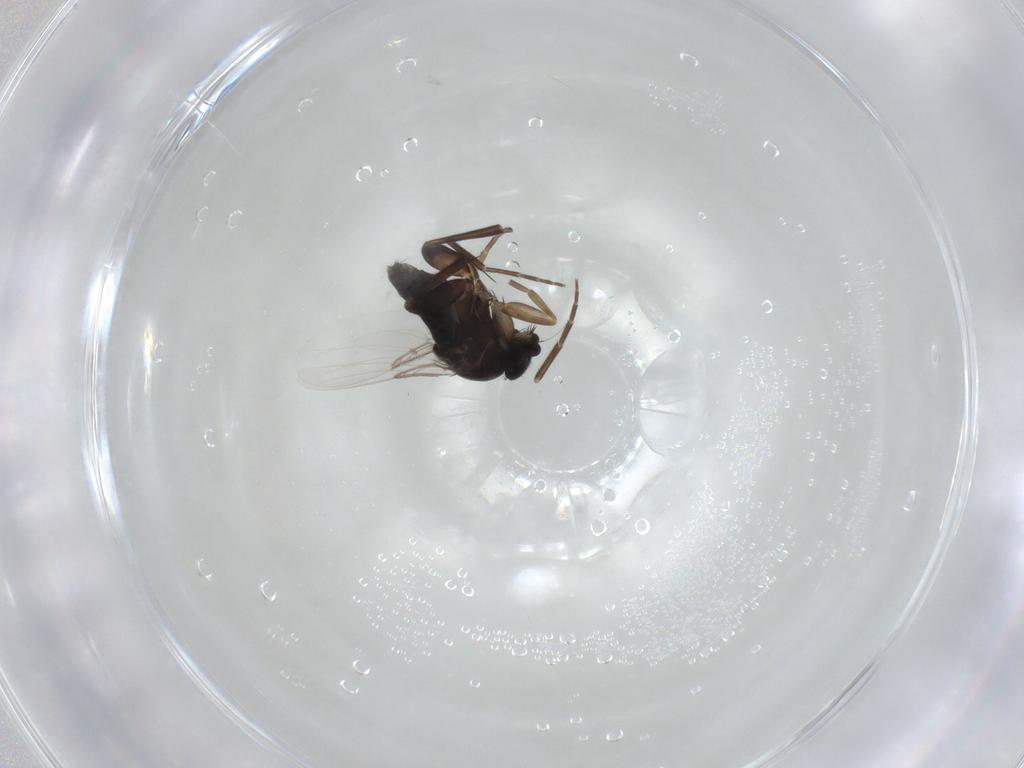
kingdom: Animalia
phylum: Arthropoda
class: Insecta
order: Diptera
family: Phoridae
